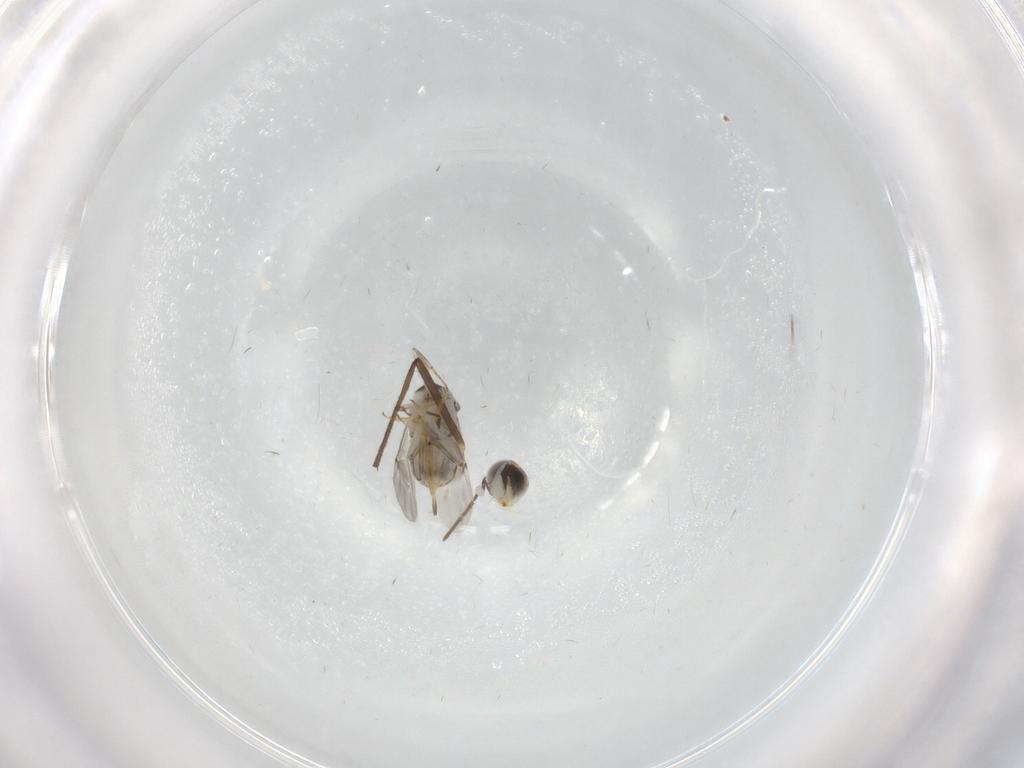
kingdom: Animalia
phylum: Arthropoda
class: Insecta
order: Hymenoptera
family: Encyrtidae
